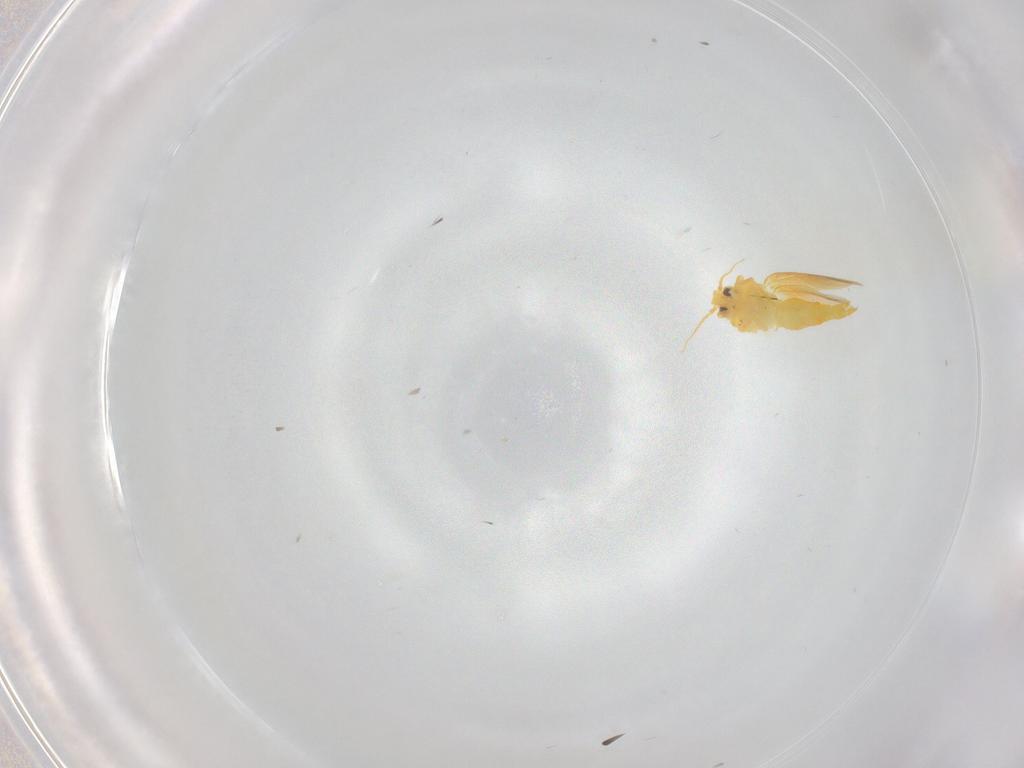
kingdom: Animalia
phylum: Arthropoda
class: Insecta
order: Hemiptera
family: Aleyrodidae
